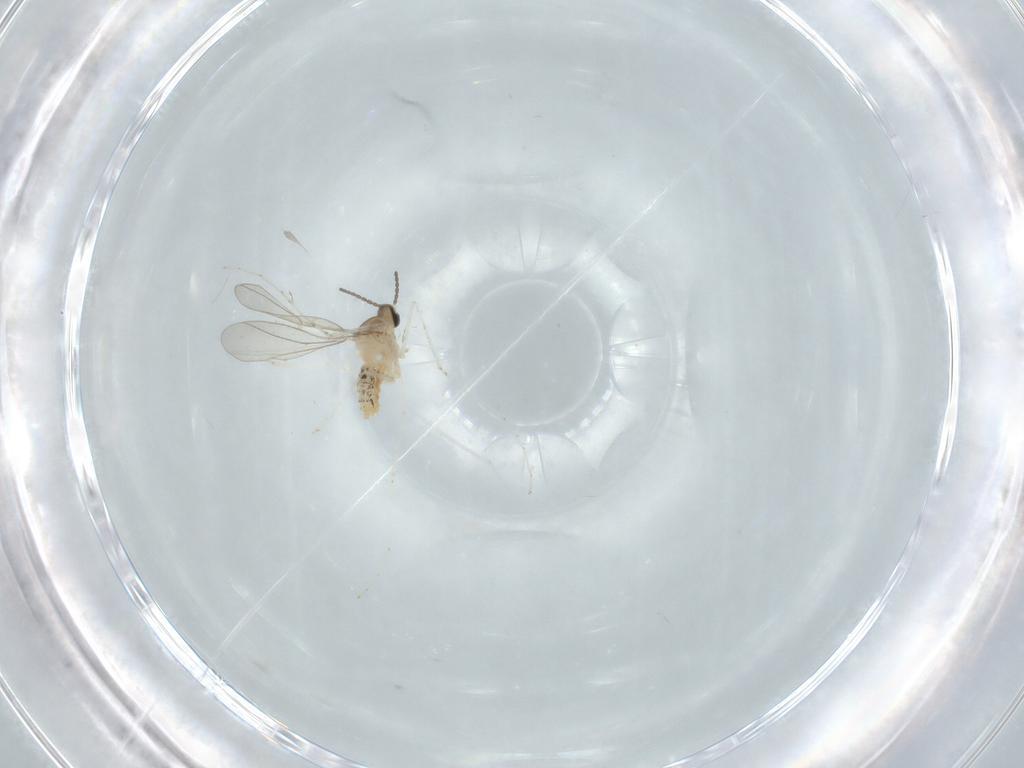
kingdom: Animalia
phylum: Arthropoda
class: Insecta
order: Diptera
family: Cecidomyiidae
